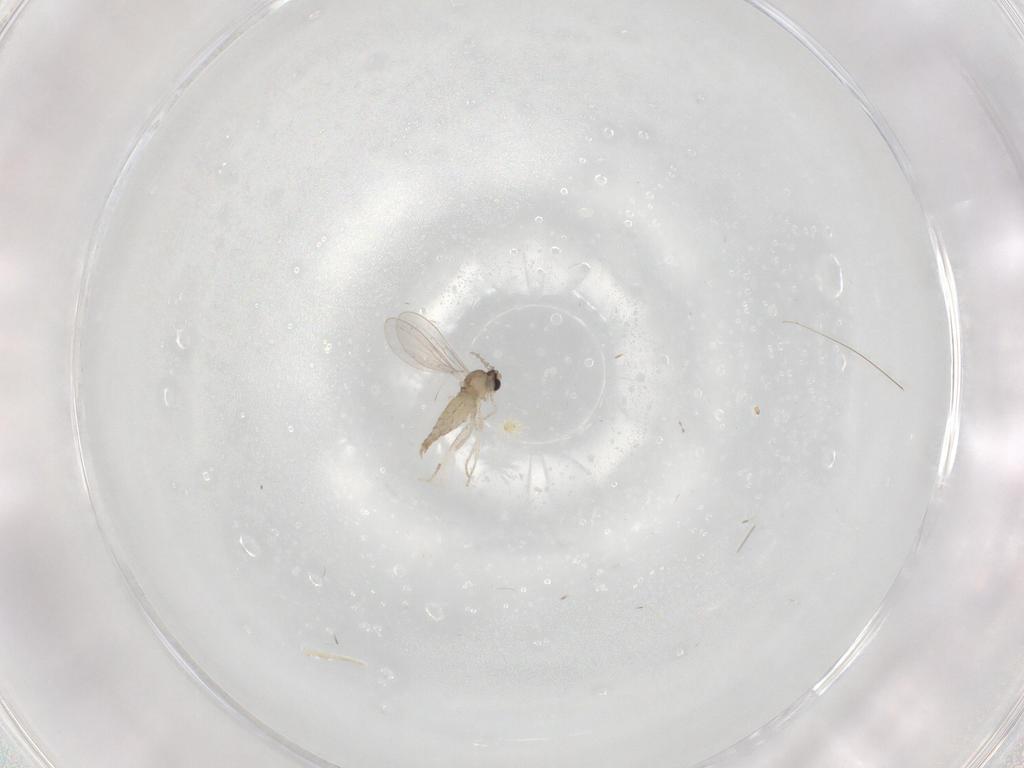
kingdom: Animalia
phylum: Arthropoda
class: Insecta
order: Diptera
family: Cecidomyiidae
